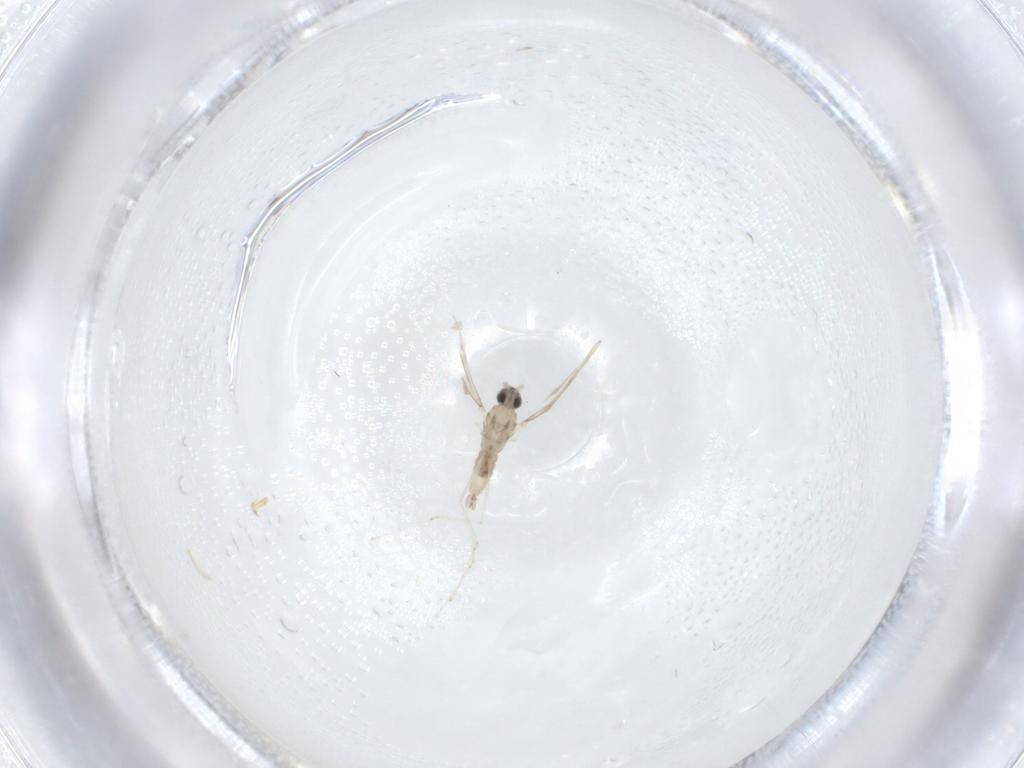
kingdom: Animalia
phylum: Arthropoda
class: Insecta
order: Diptera
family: Cecidomyiidae
